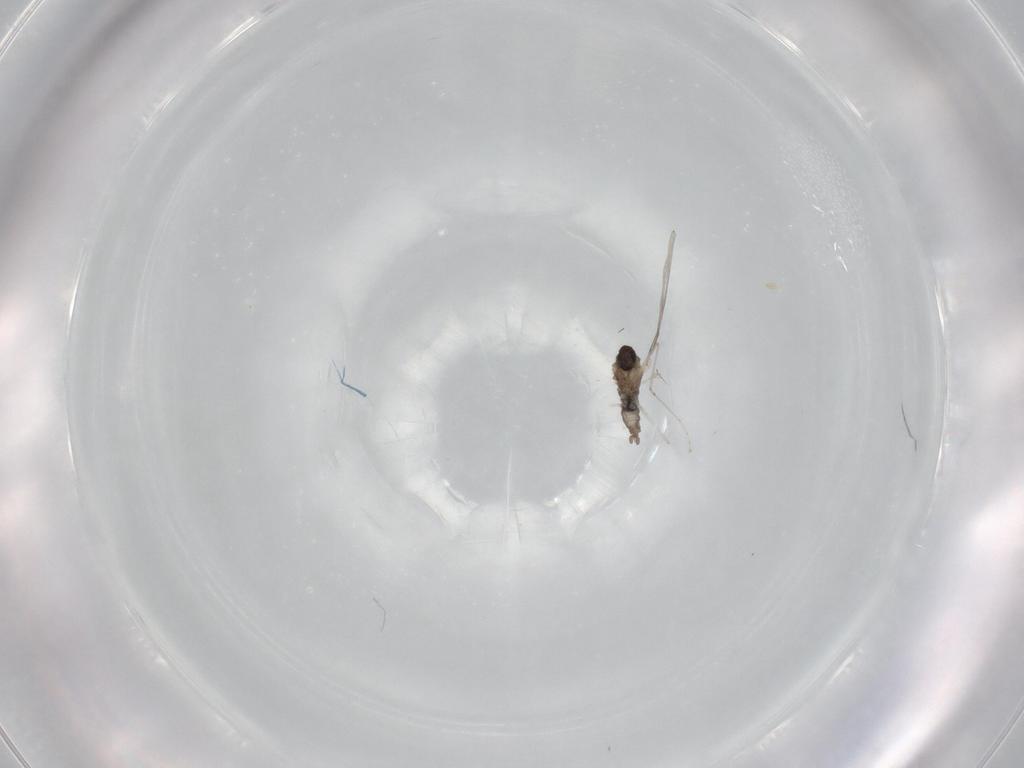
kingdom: Animalia
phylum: Arthropoda
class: Insecta
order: Diptera
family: Cecidomyiidae
